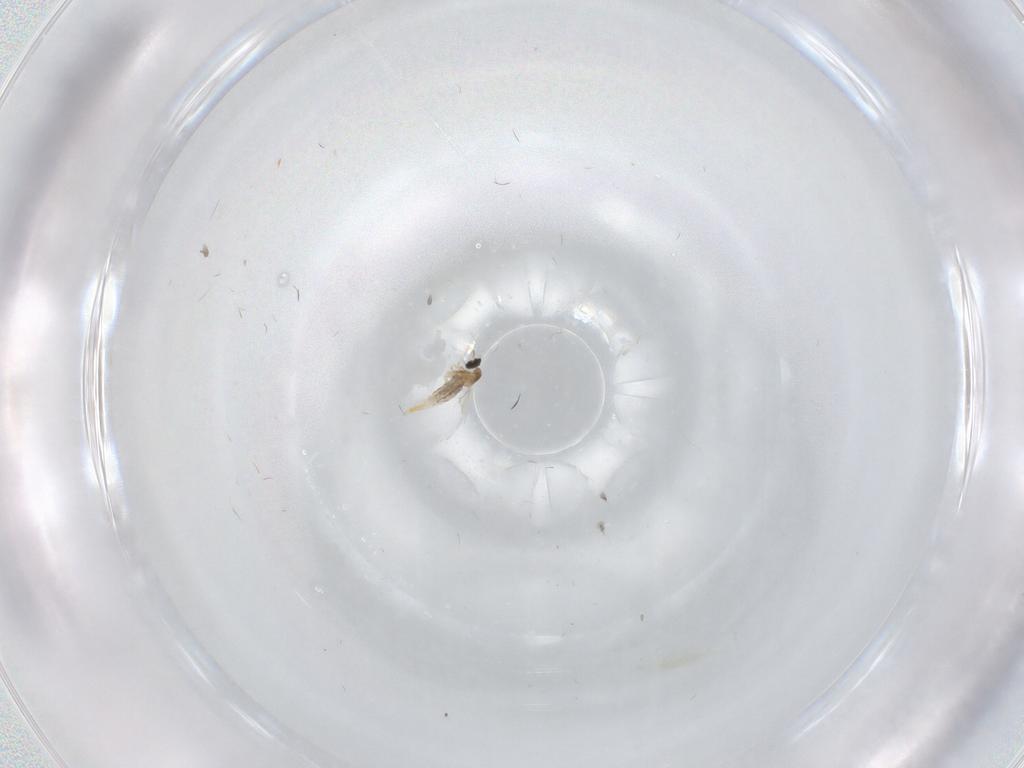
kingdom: Animalia
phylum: Arthropoda
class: Insecta
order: Diptera
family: Cecidomyiidae
